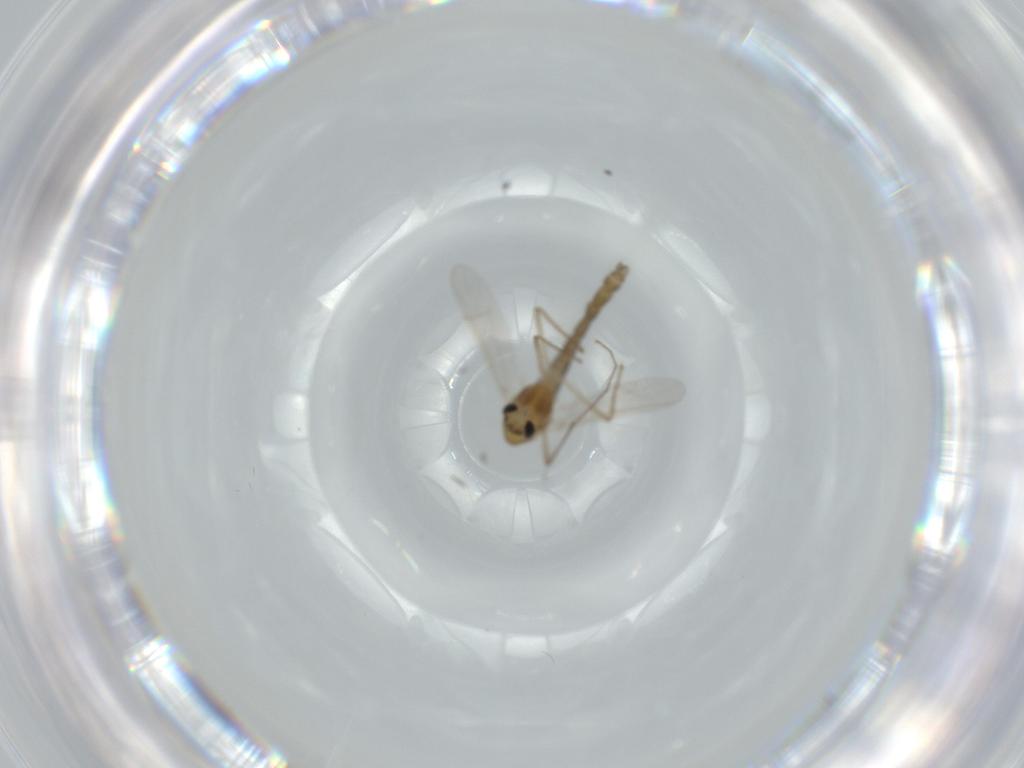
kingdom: Animalia
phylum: Arthropoda
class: Insecta
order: Diptera
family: Chironomidae
